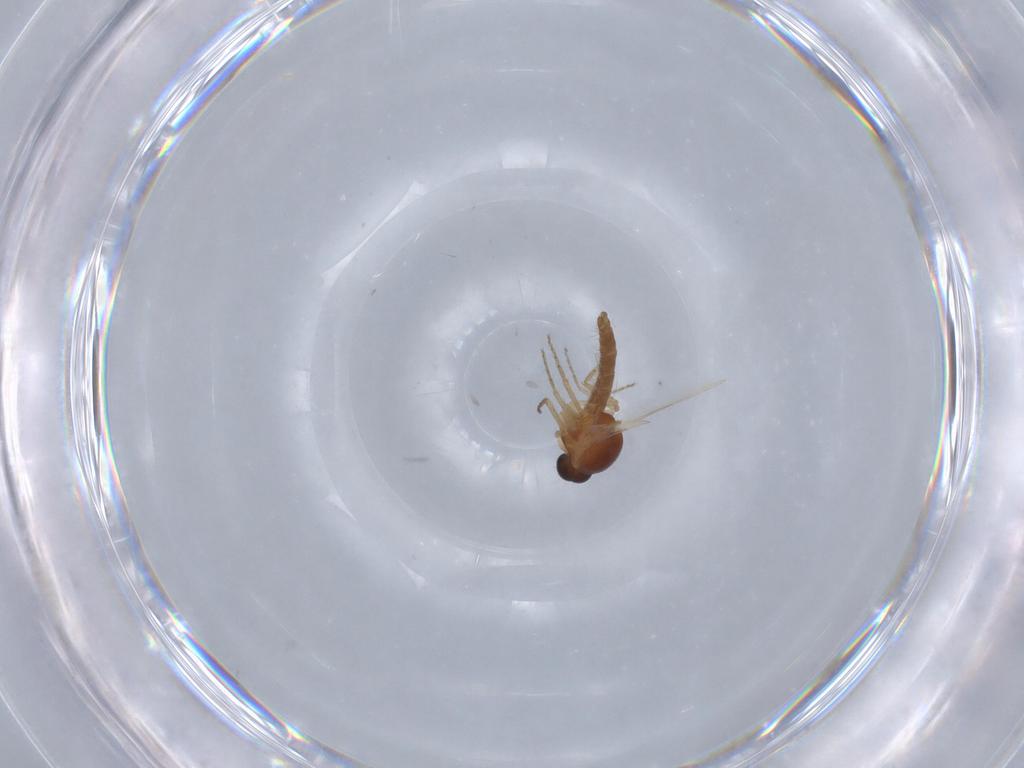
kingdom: Animalia
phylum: Arthropoda
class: Insecta
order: Diptera
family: Ceratopogonidae
